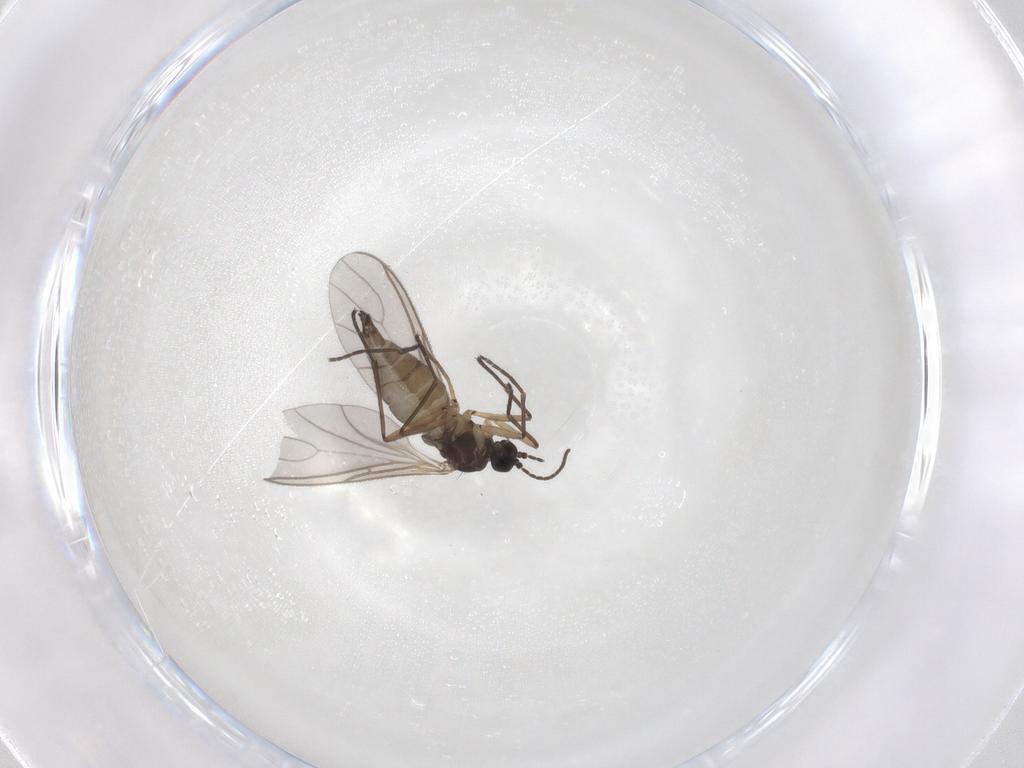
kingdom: Animalia
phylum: Arthropoda
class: Insecta
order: Diptera
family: Sciaridae
